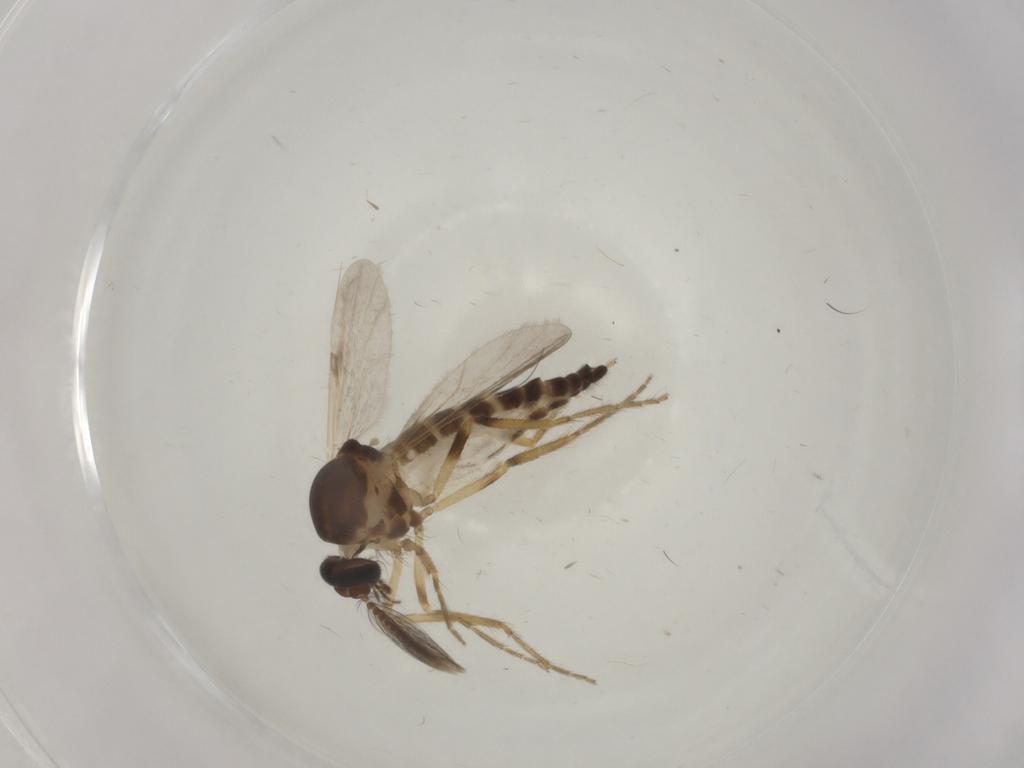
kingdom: Animalia
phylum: Arthropoda
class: Insecta
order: Diptera
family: Ceratopogonidae
